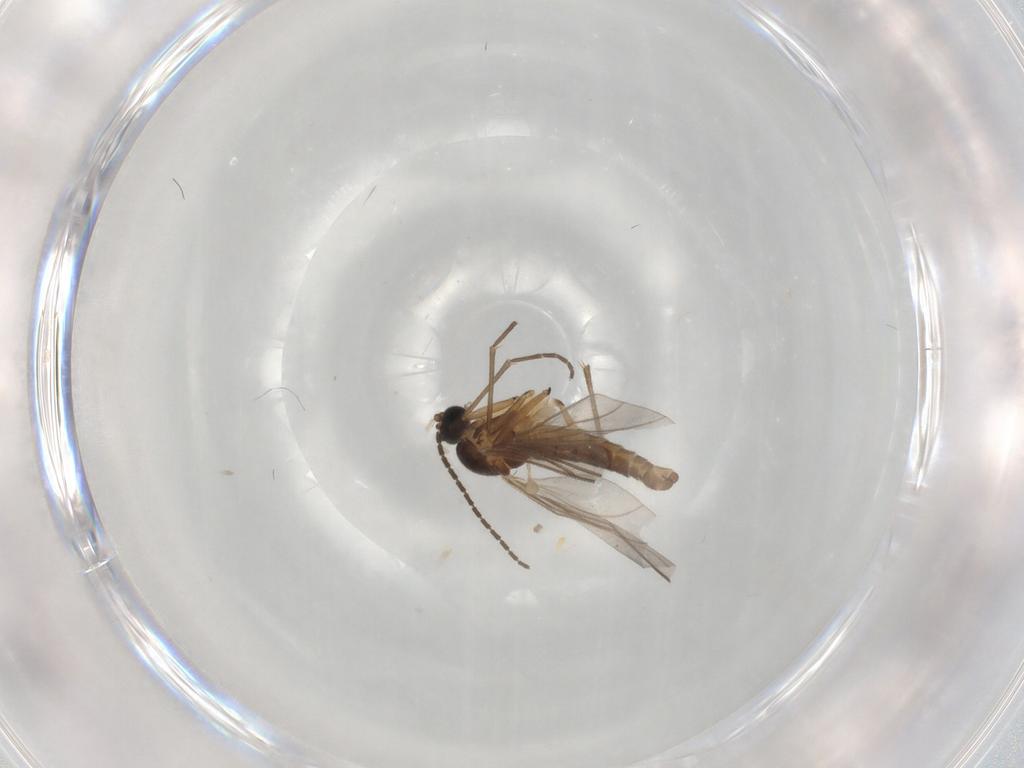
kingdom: Animalia
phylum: Arthropoda
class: Insecta
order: Diptera
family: Sciaridae
